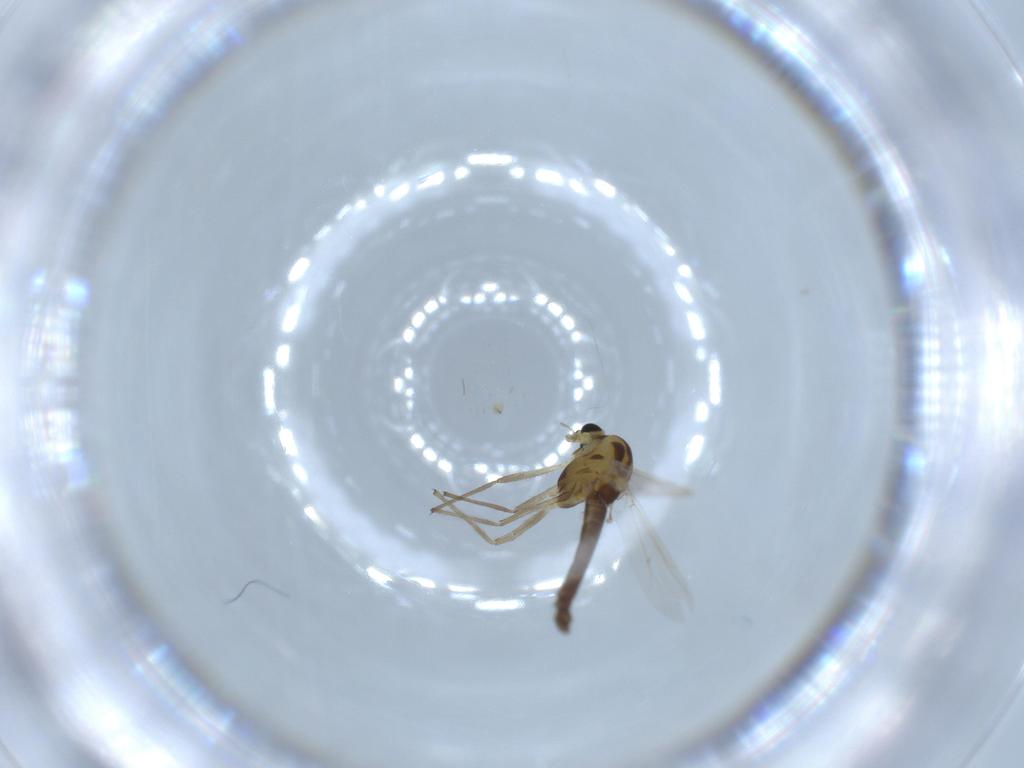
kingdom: Animalia
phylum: Arthropoda
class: Insecta
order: Diptera
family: Chironomidae
